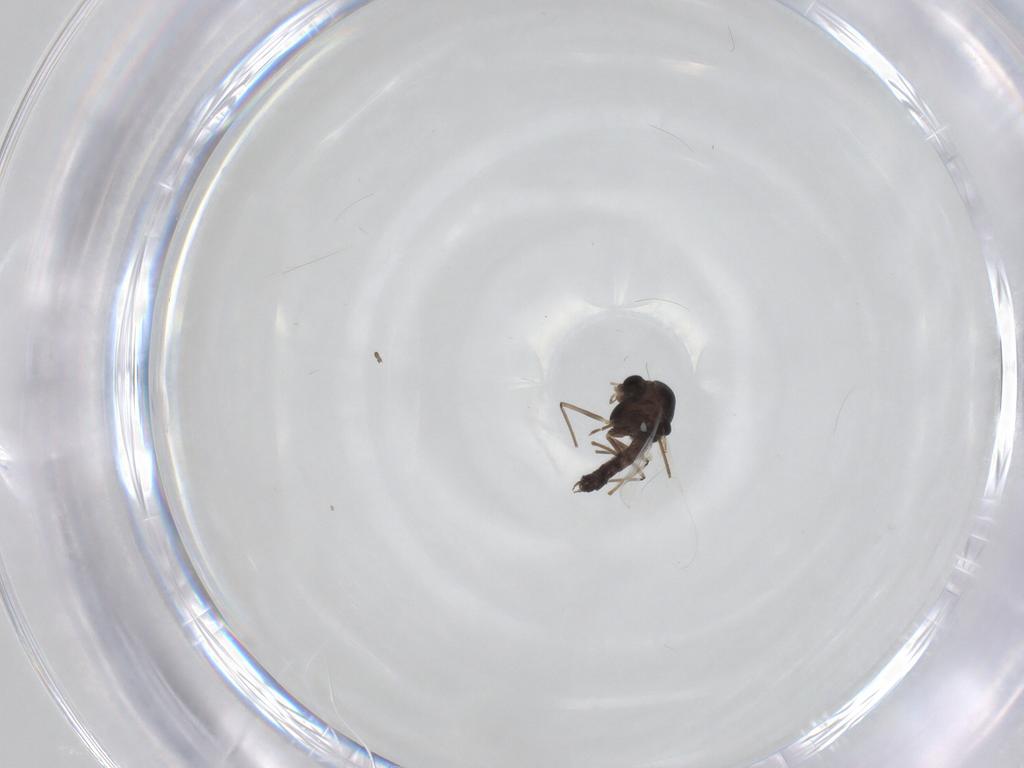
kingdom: Animalia
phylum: Arthropoda
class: Insecta
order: Diptera
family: Chironomidae
